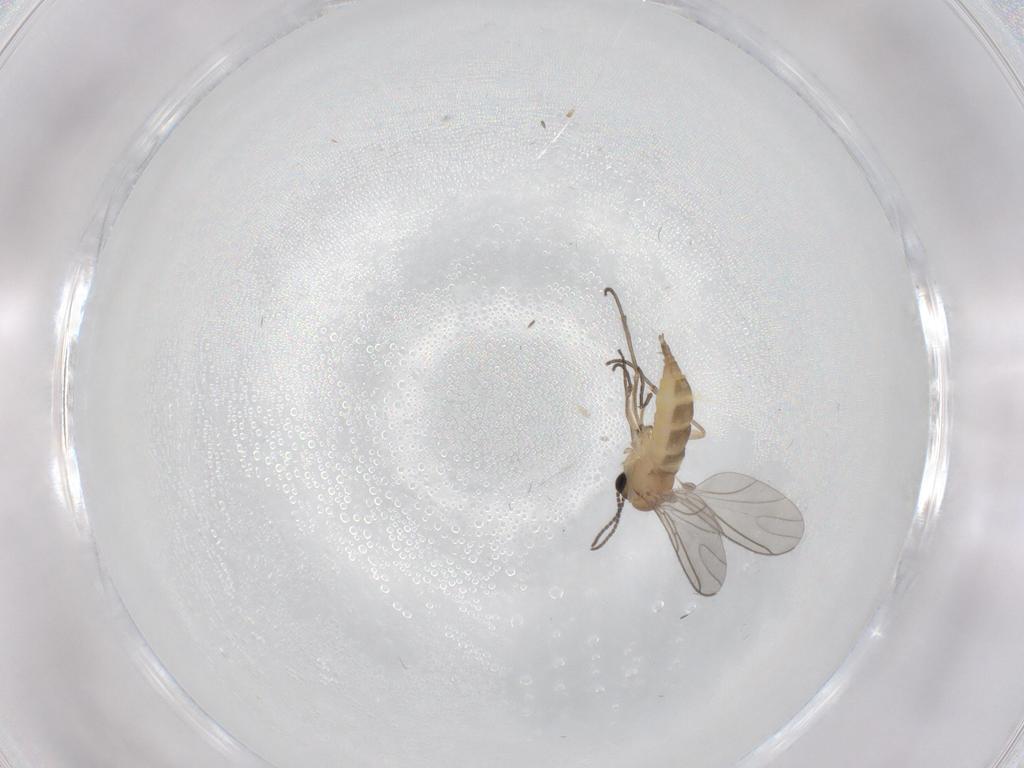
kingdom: Animalia
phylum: Arthropoda
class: Insecta
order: Diptera
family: Sciaridae
